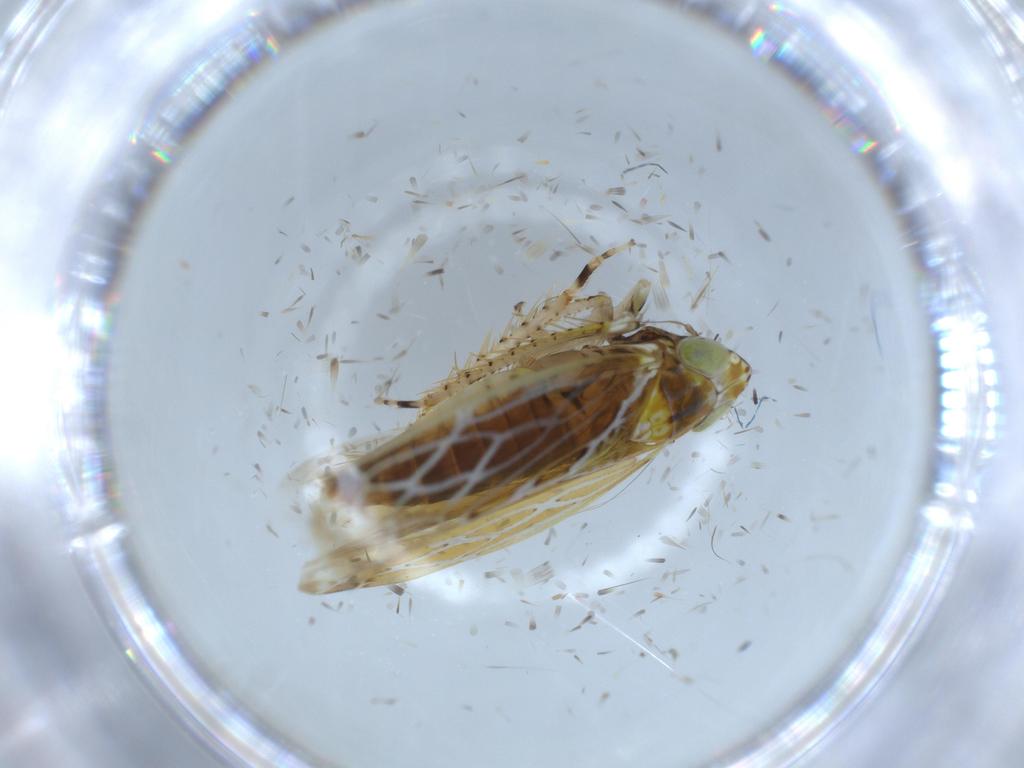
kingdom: Animalia
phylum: Arthropoda
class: Insecta
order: Hemiptera
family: Cicadellidae
